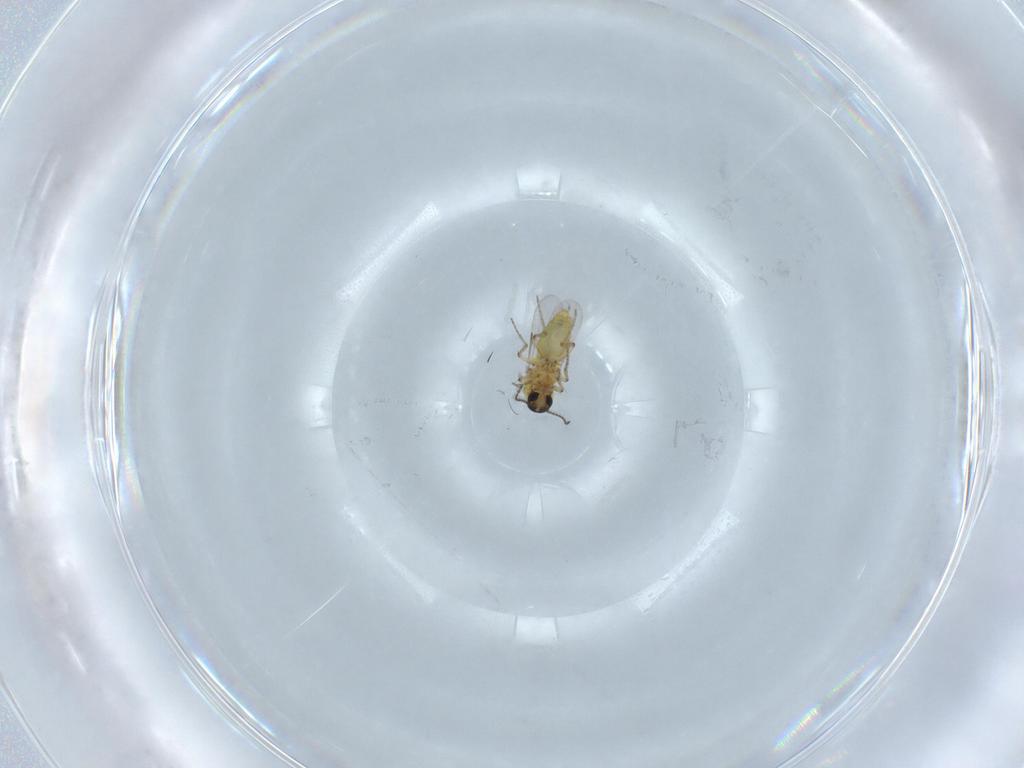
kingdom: Animalia
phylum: Arthropoda
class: Insecta
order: Diptera
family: Ceratopogonidae
